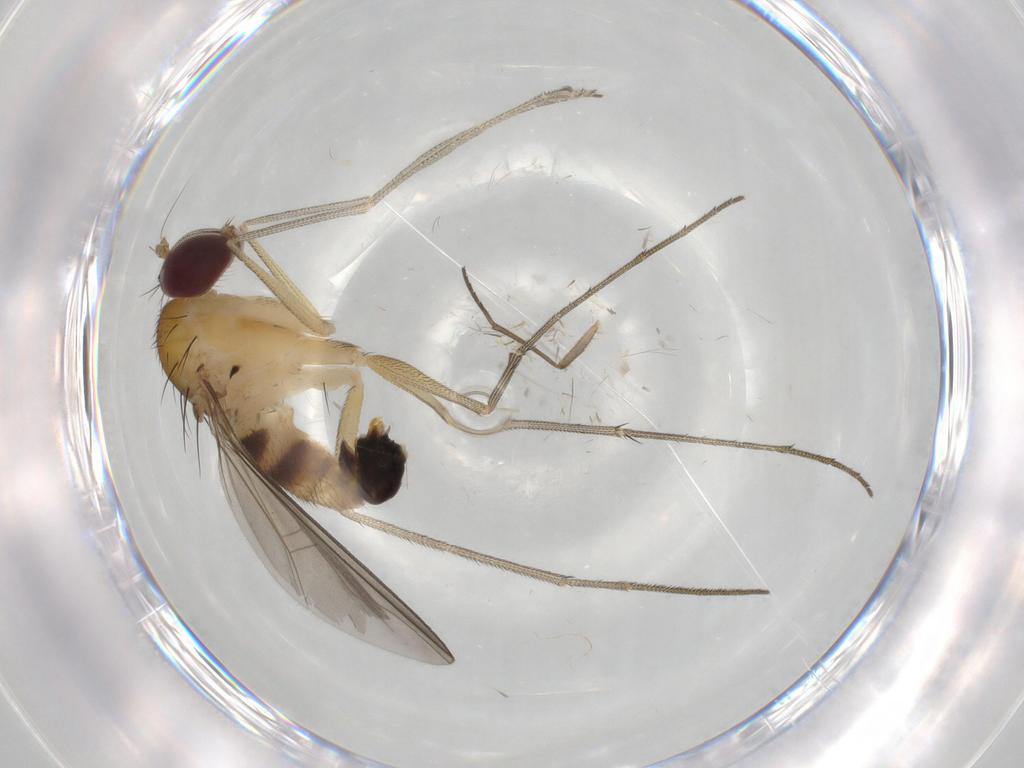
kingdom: Animalia
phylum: Arthropoda
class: Insecta
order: Diptera
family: Dolichopodidae
